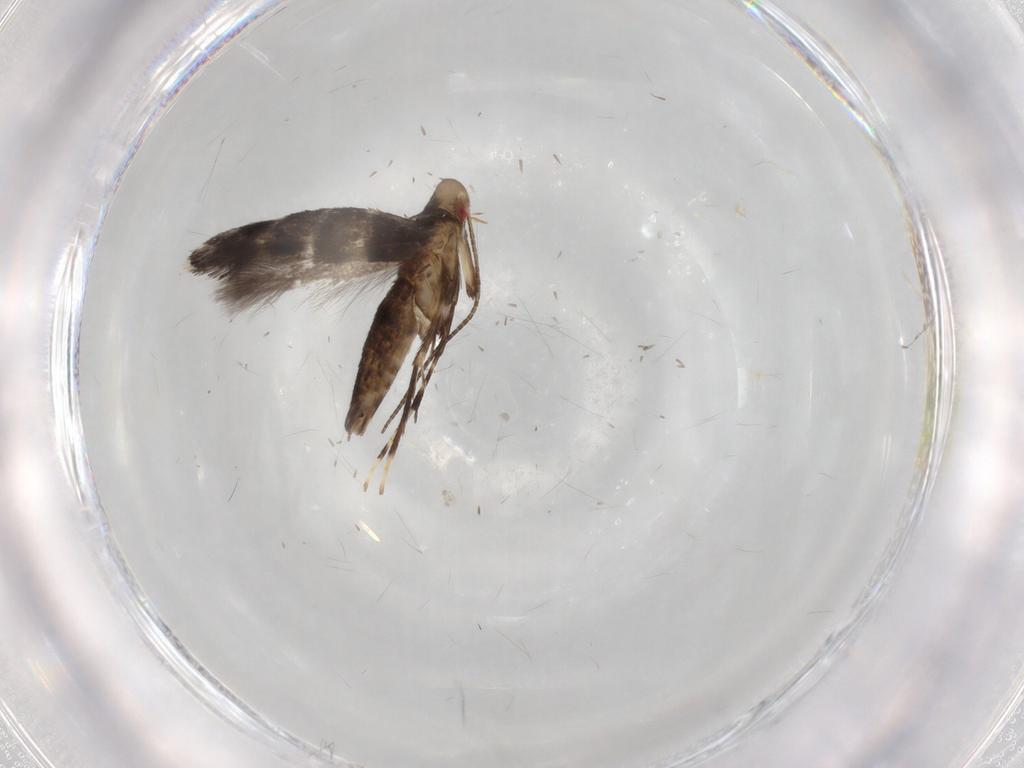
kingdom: Animalia
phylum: Arthropoda
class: Insecta
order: Lepidoptera
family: Gracillariidae
